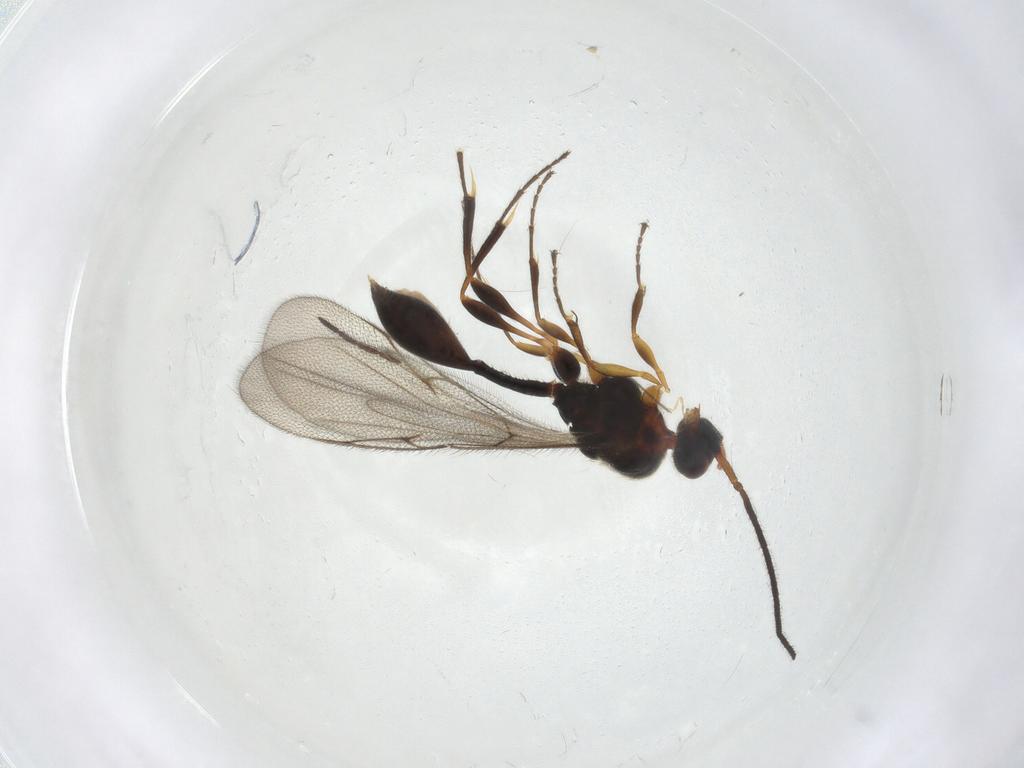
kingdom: Animalia
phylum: Arthropoda
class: Insecta
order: Hymenoptera
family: Diapriidae
